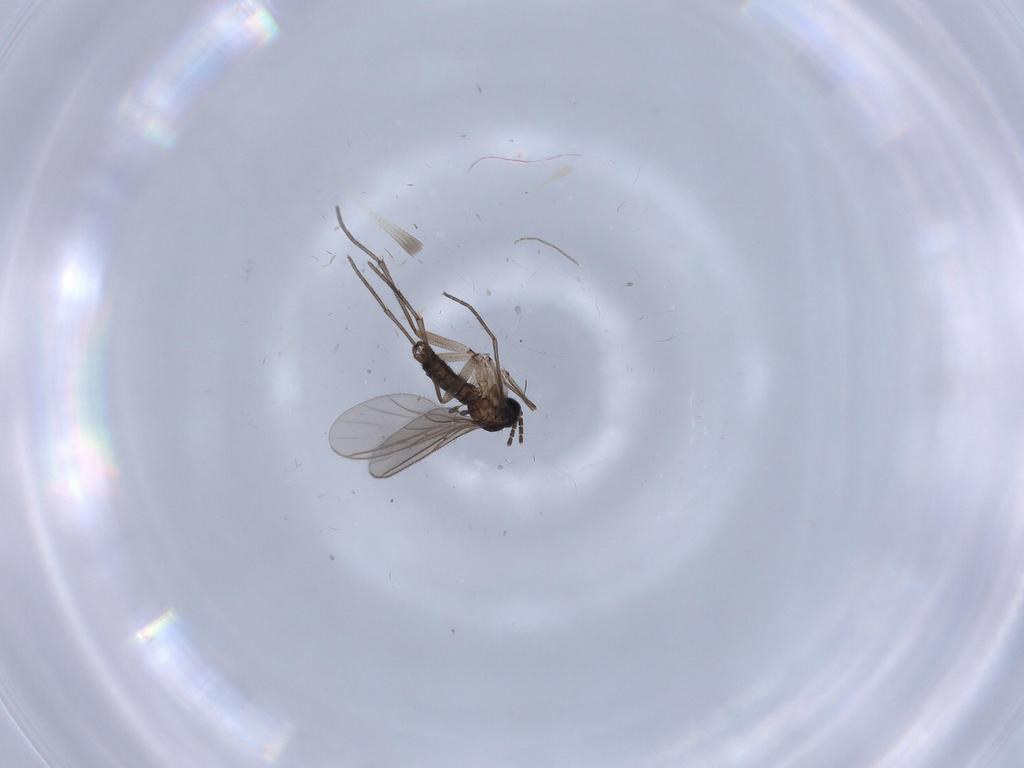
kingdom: Animalia
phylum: Arthropoda
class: Insecta
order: Diptera
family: Sciaridae
